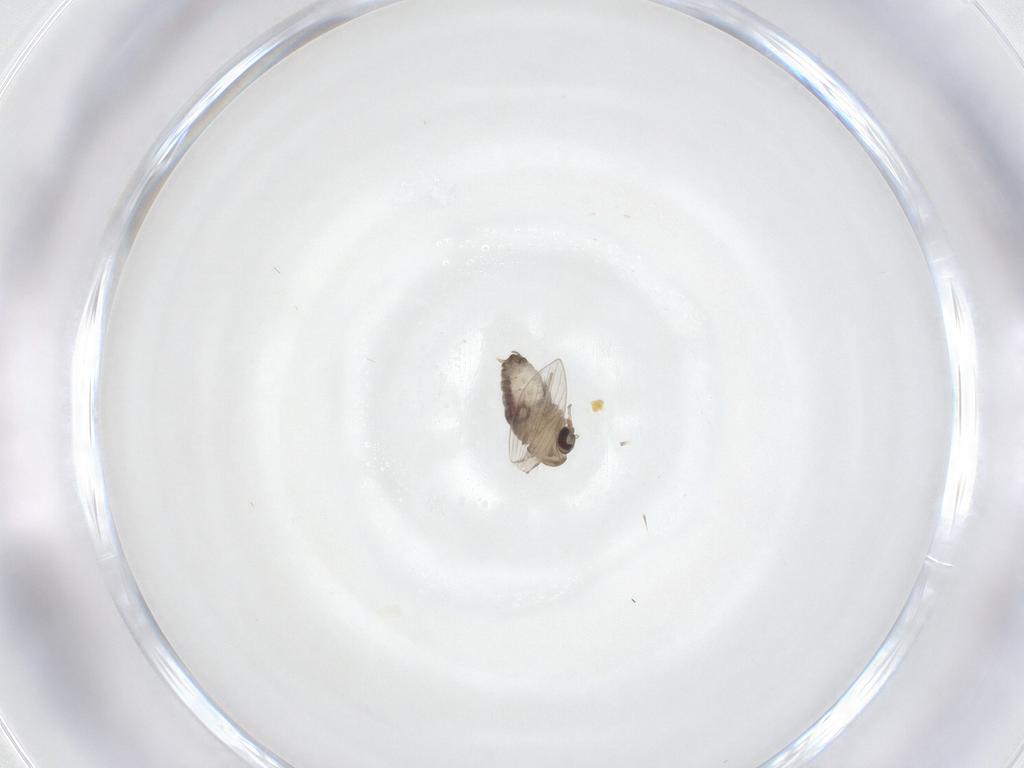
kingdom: Animalia
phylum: Arthropoda
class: Insecta
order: Diptera
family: Psychodidae
